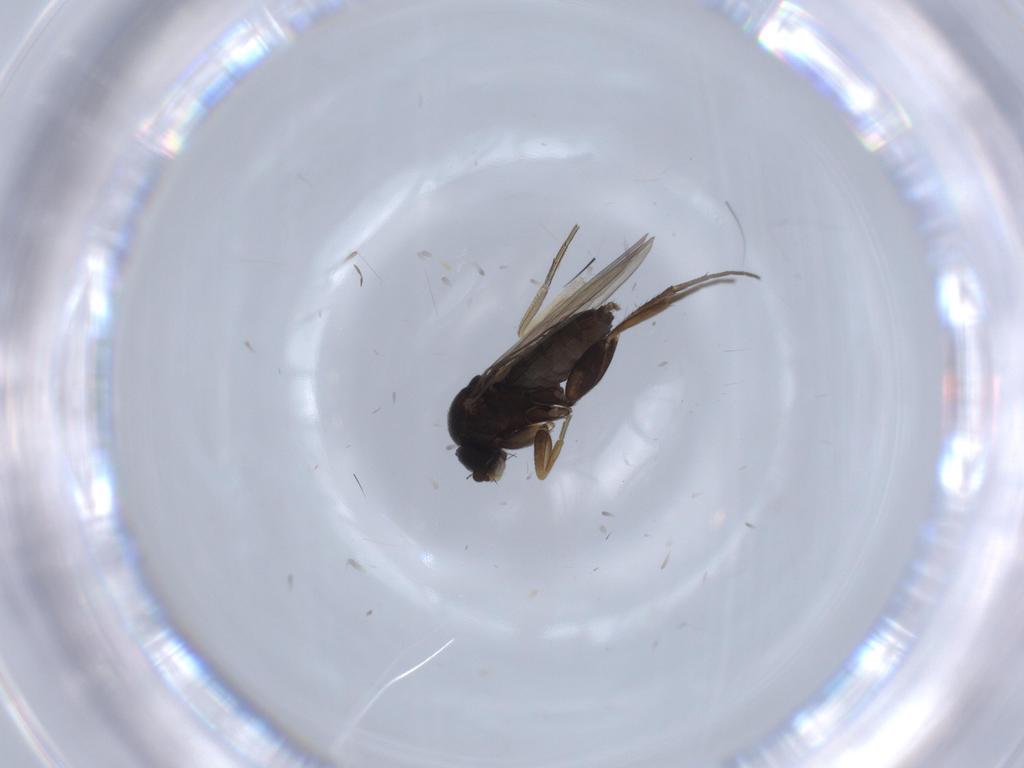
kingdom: Animalia
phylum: Arthropoda
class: Insecta
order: Diptera
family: Phoridae
